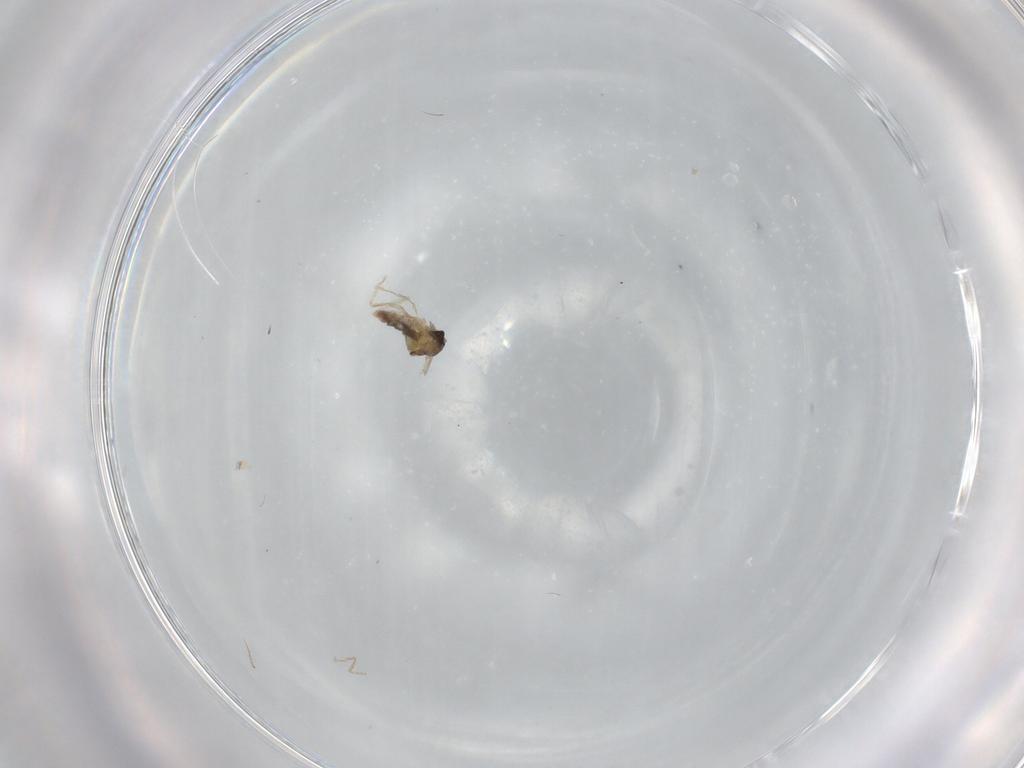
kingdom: Animalia
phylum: Arthropoda
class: Insecta
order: Diptera
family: Cecidomyiidae
